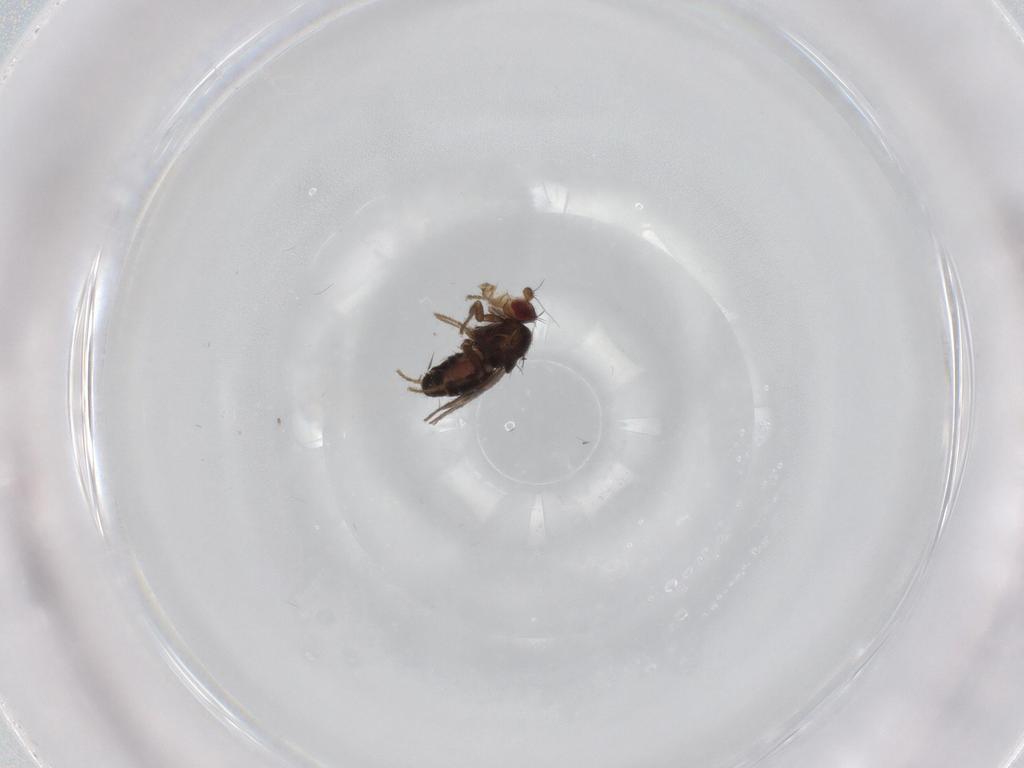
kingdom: Animalia
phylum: Arthropoda
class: Insecta
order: Diptera
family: Sphaeroceridae
